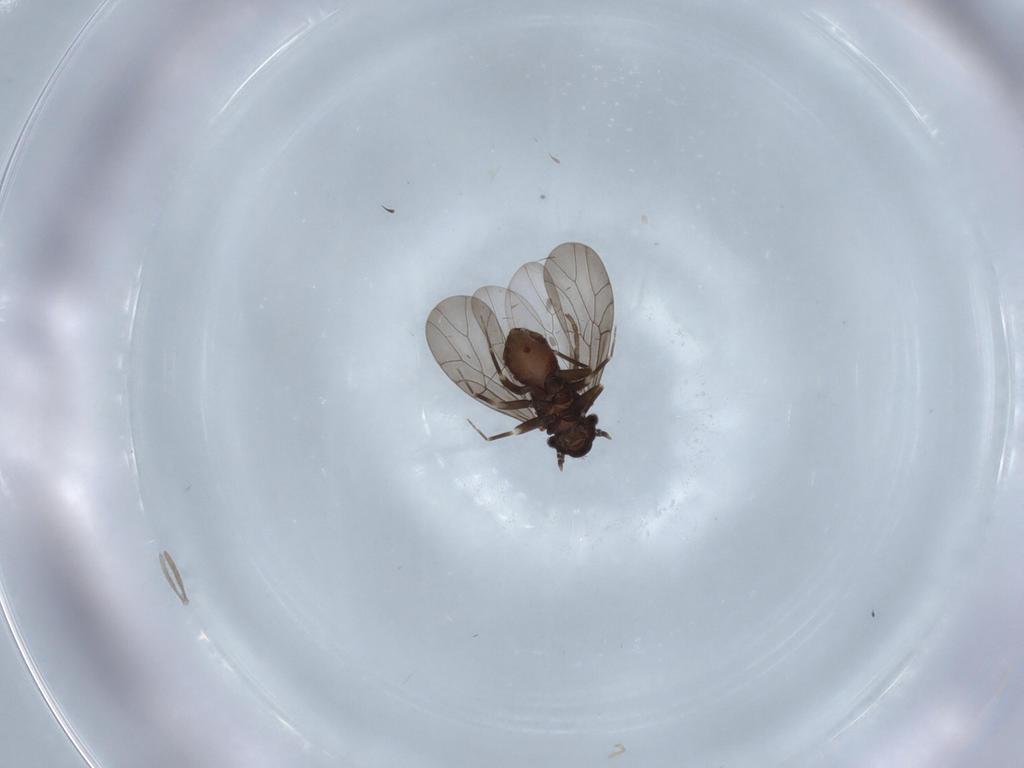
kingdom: Animalia
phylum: Arthropoda
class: Insecta
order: Psocodea
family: Lepidopsocidae
